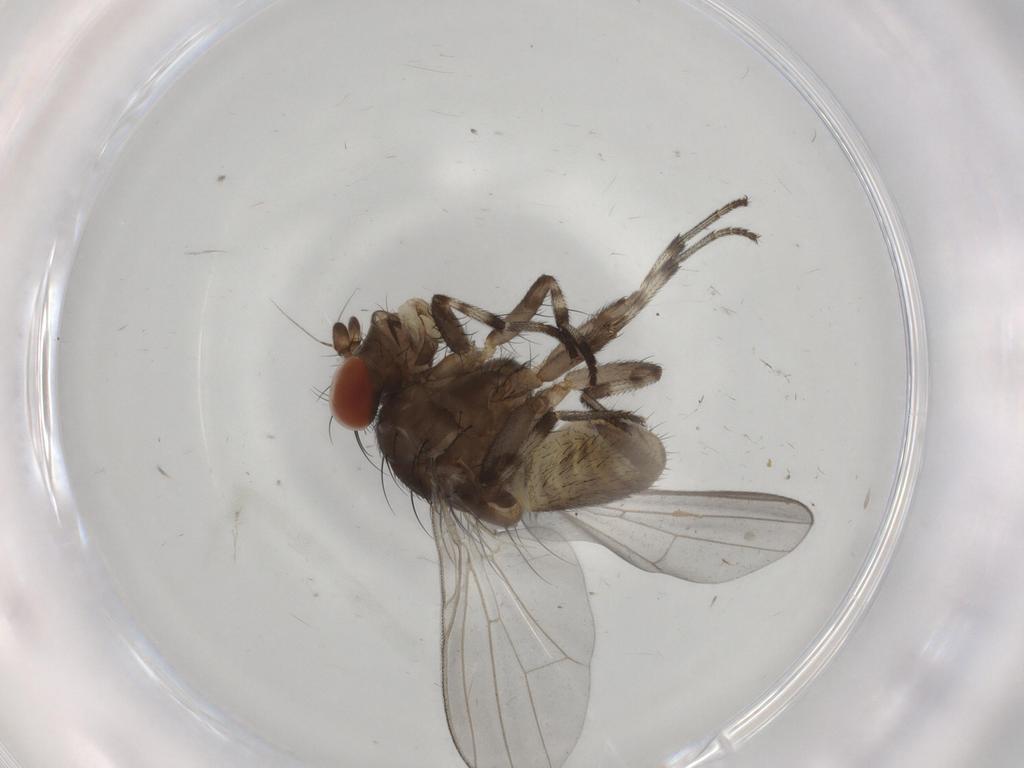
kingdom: Animalia
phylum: Arthropoda
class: Insecta
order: Diptera
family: Lauxaniidae
